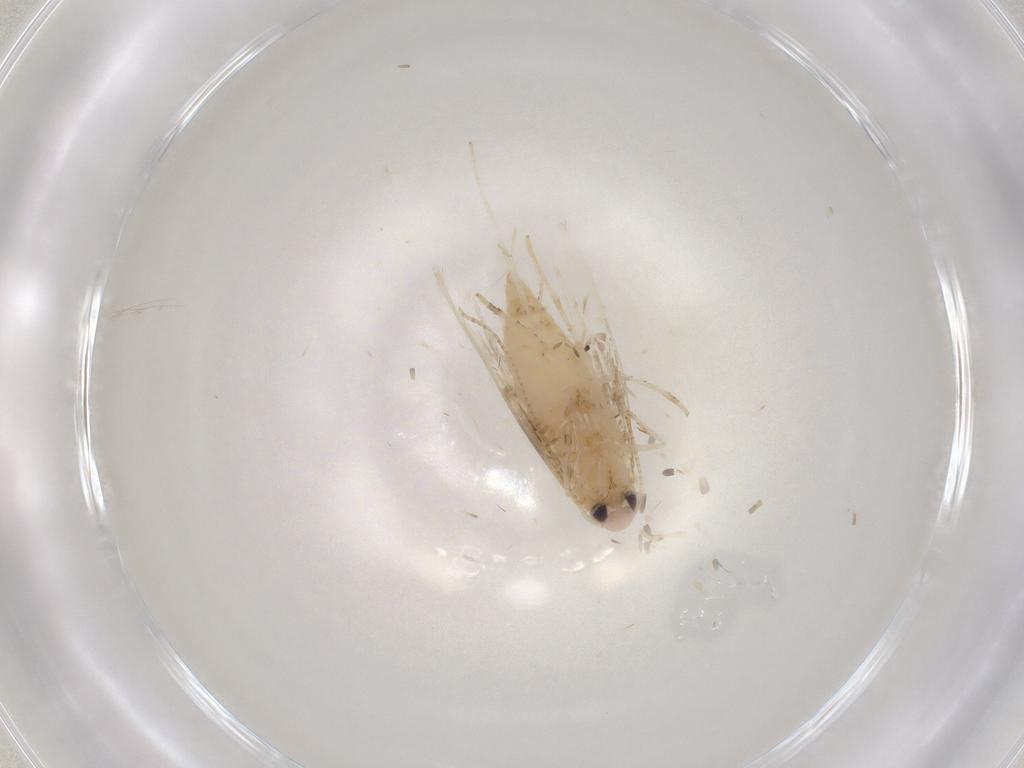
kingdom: Animalia
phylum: Arthropoda
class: Insecta
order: Lepidoptera
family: Gracillariidae
